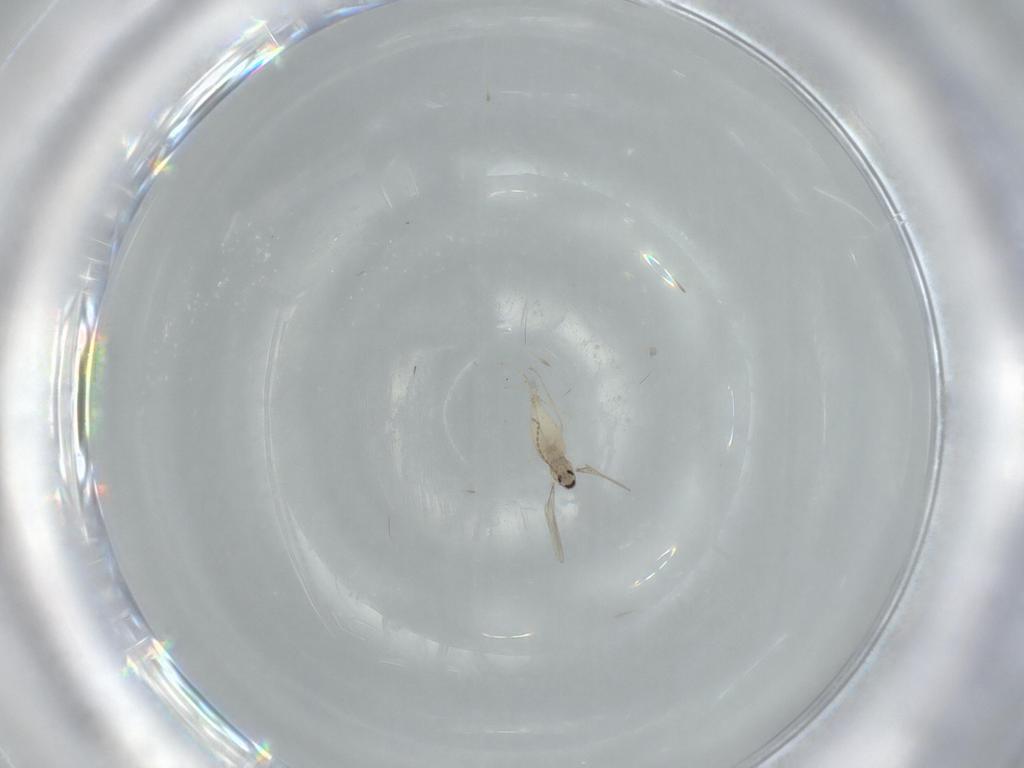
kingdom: Animalia
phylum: Arthropoda
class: Insecta
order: Diptera
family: Cecidomyiidae
